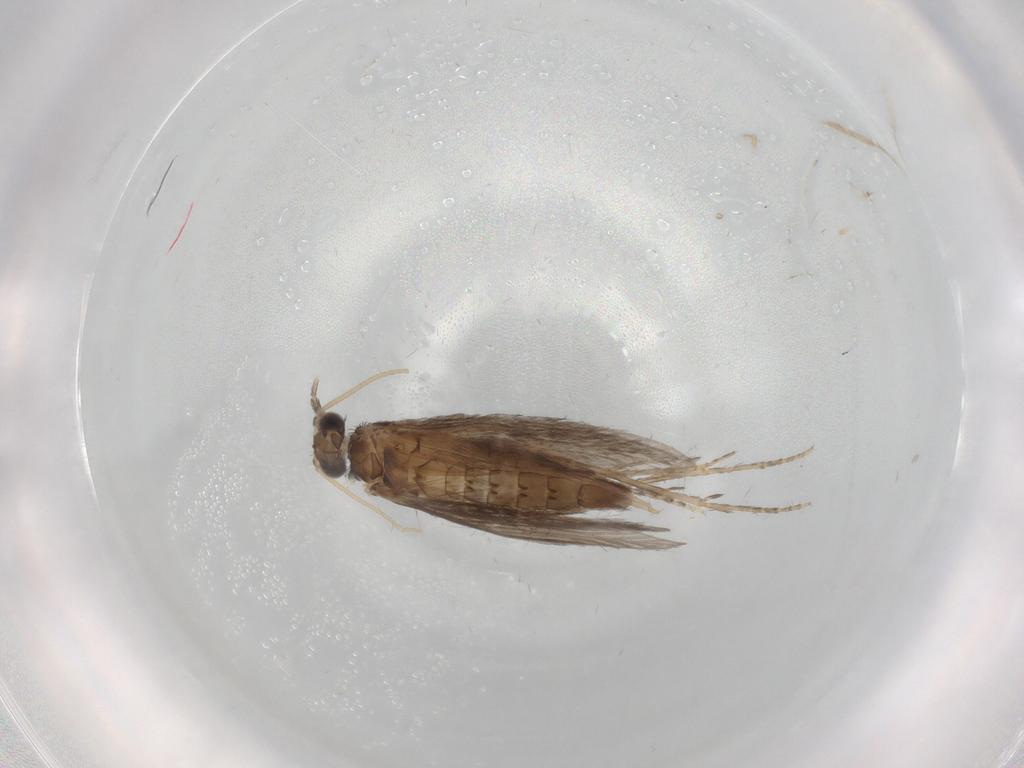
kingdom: Animalia
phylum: Arthropoda
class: Insecta
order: Trichoptera
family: Hydroptilidae
